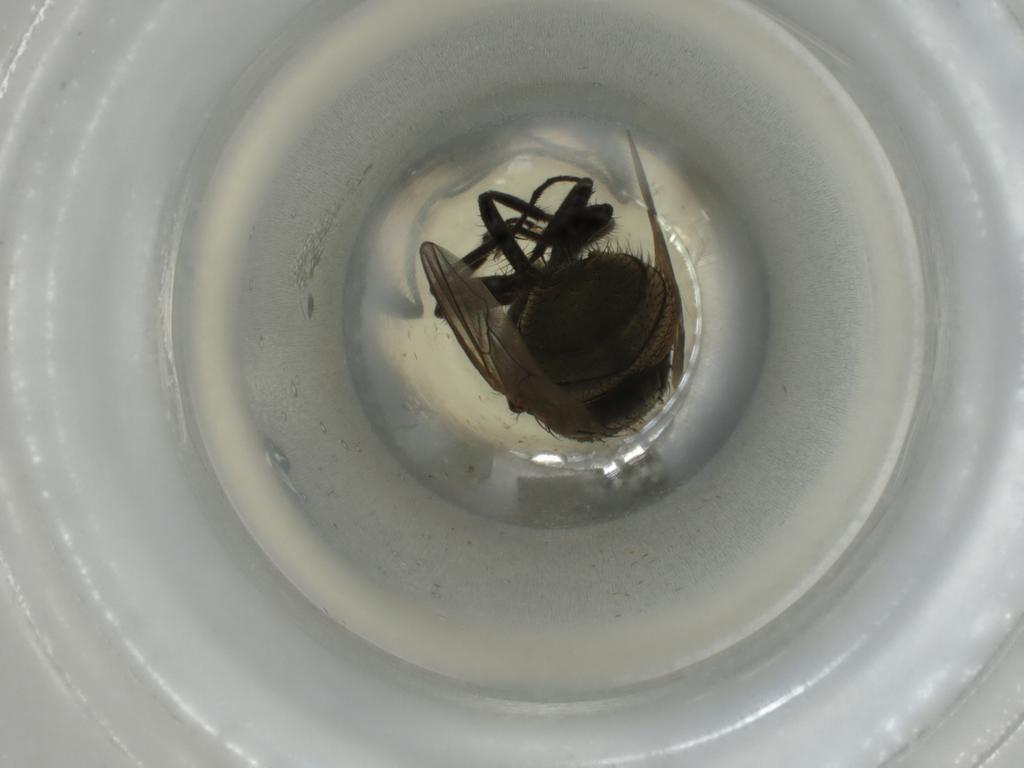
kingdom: Animalia
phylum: Arthropoda
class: Insecta
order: Diptera
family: Muscidae
